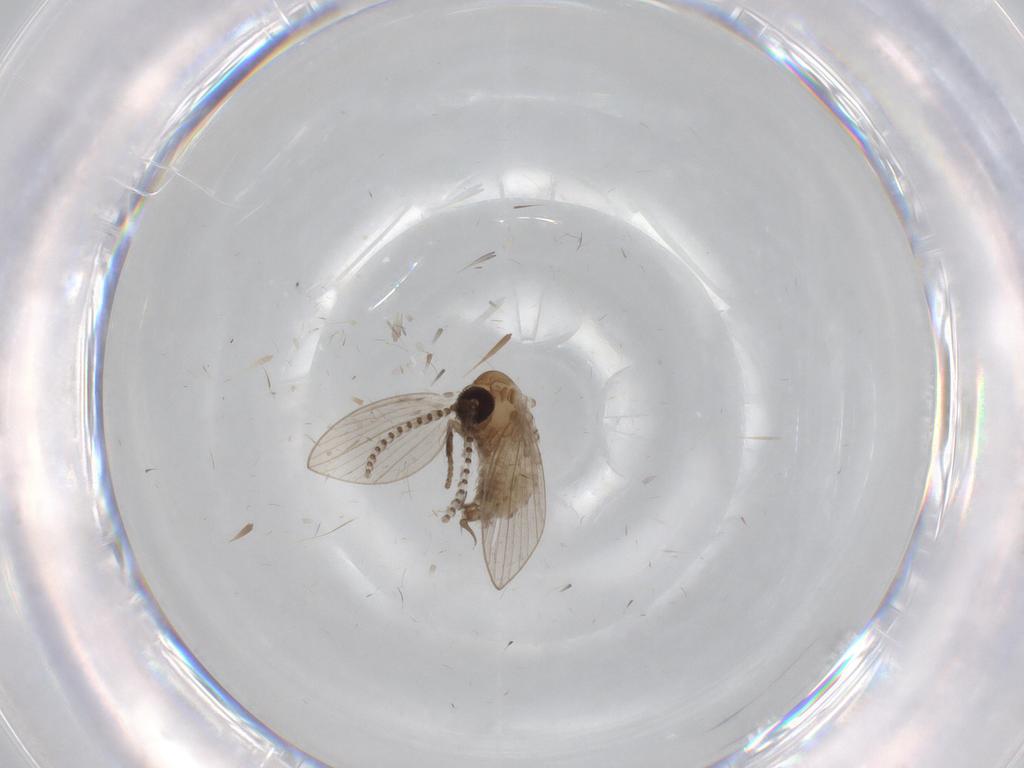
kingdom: Animalia
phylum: Arthropoda
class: Insecta
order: Diptera
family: Chironomidae
